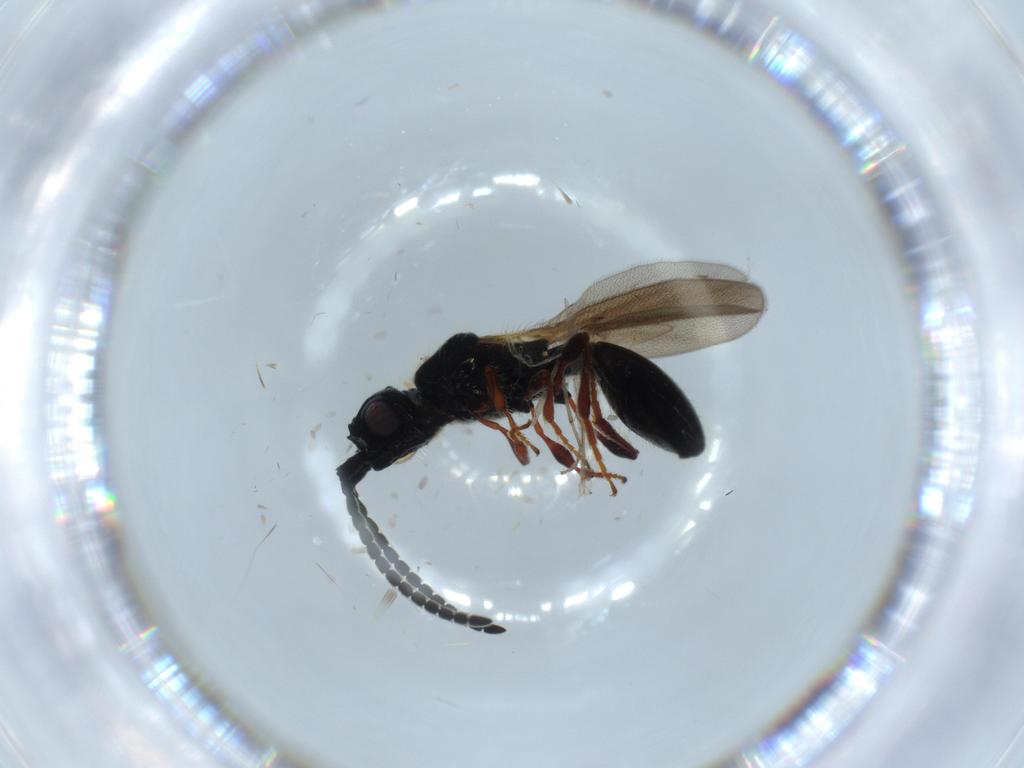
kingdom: Animalia
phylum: Arthropoda
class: Insecta
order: Hymenoptera
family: Diapriidae
